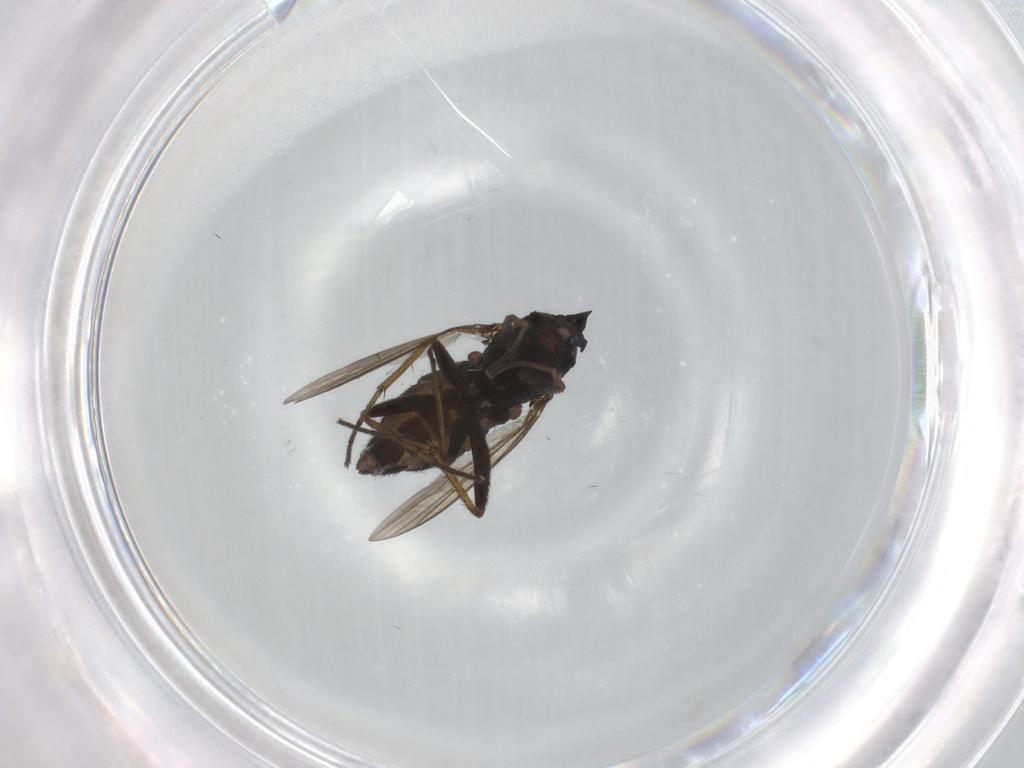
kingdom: Animalia
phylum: Arthropoda
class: Insecta
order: Diptera
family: Dolichopodidae
